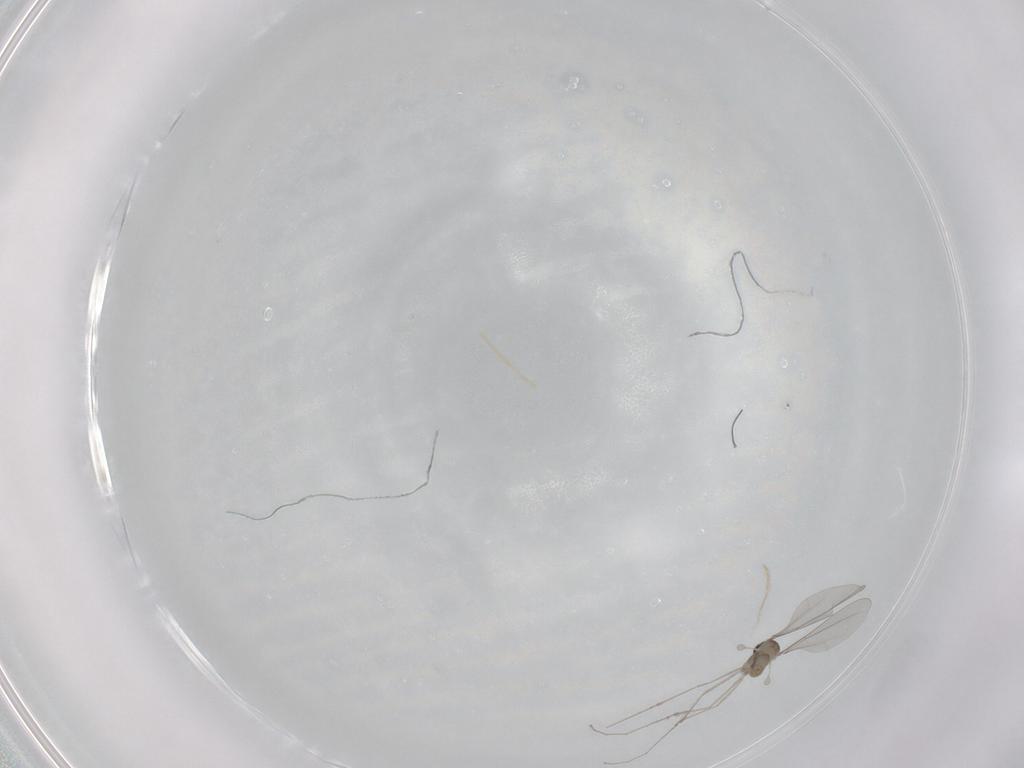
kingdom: Animalia
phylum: Arthropoda
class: Insecta
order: Diptera
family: Cecidomyiidae
